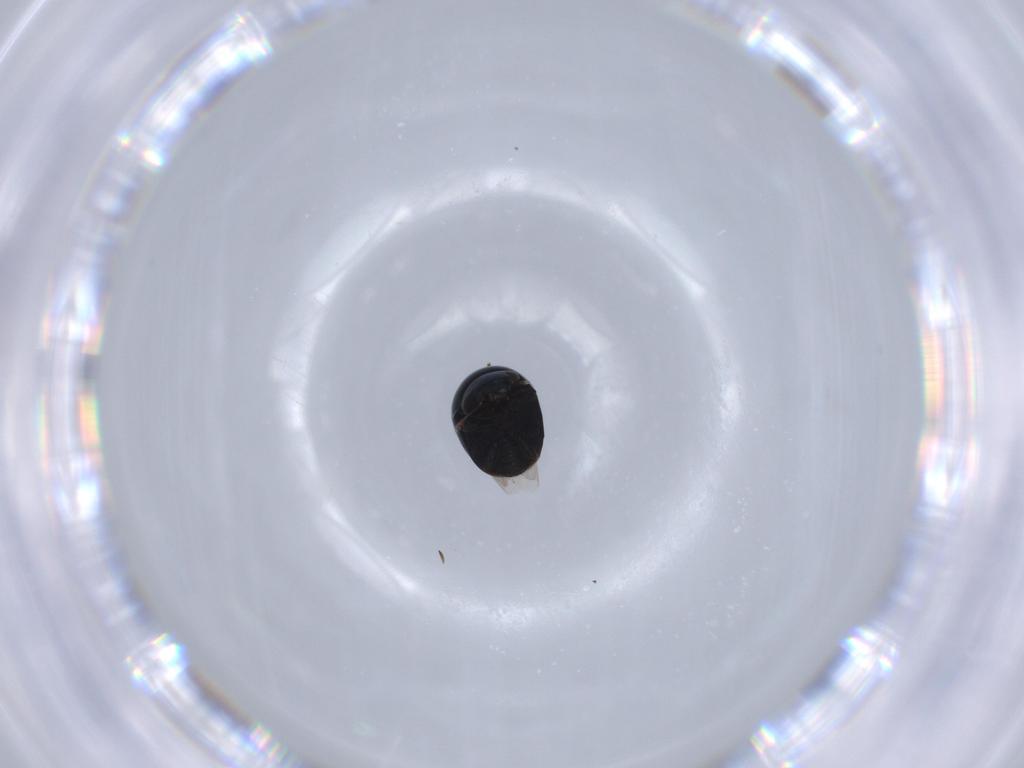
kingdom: Animalia
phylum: Arthropoda
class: Insecta
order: Coleoptera
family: Cybocephalidae
